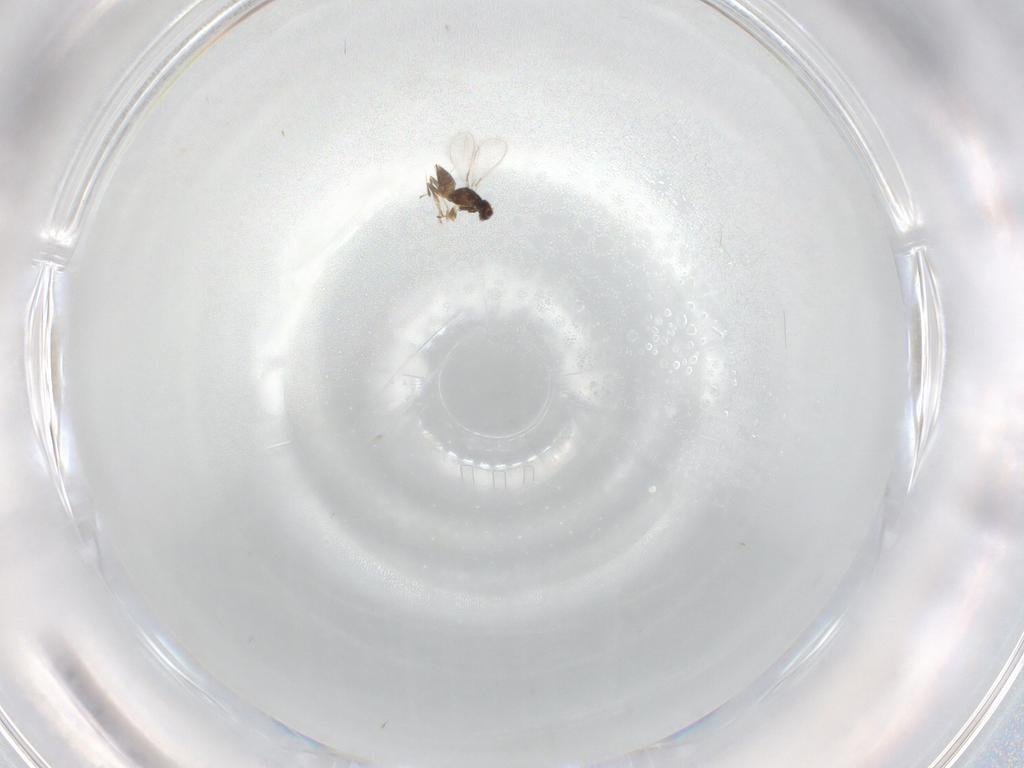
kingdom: Animalia
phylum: Arthropoda
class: Insecta
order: Hymenoptera
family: Mymaridae
